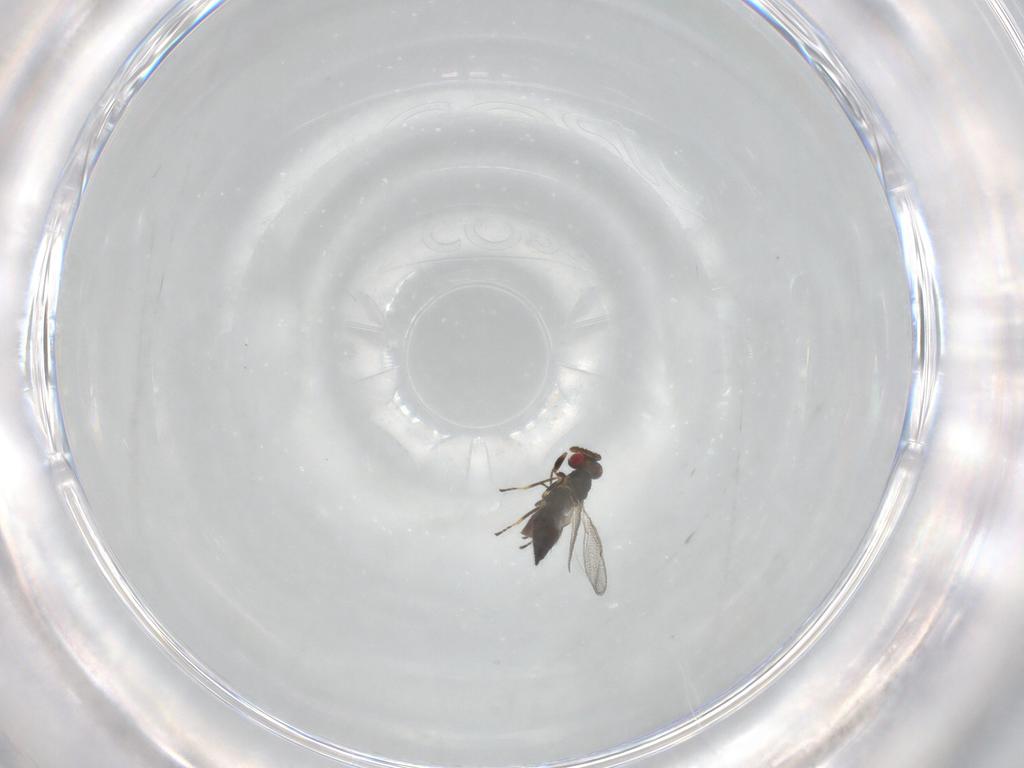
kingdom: Animalia
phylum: Arthropoda
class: Insecta
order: Hymenoptera
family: Eulophidae
